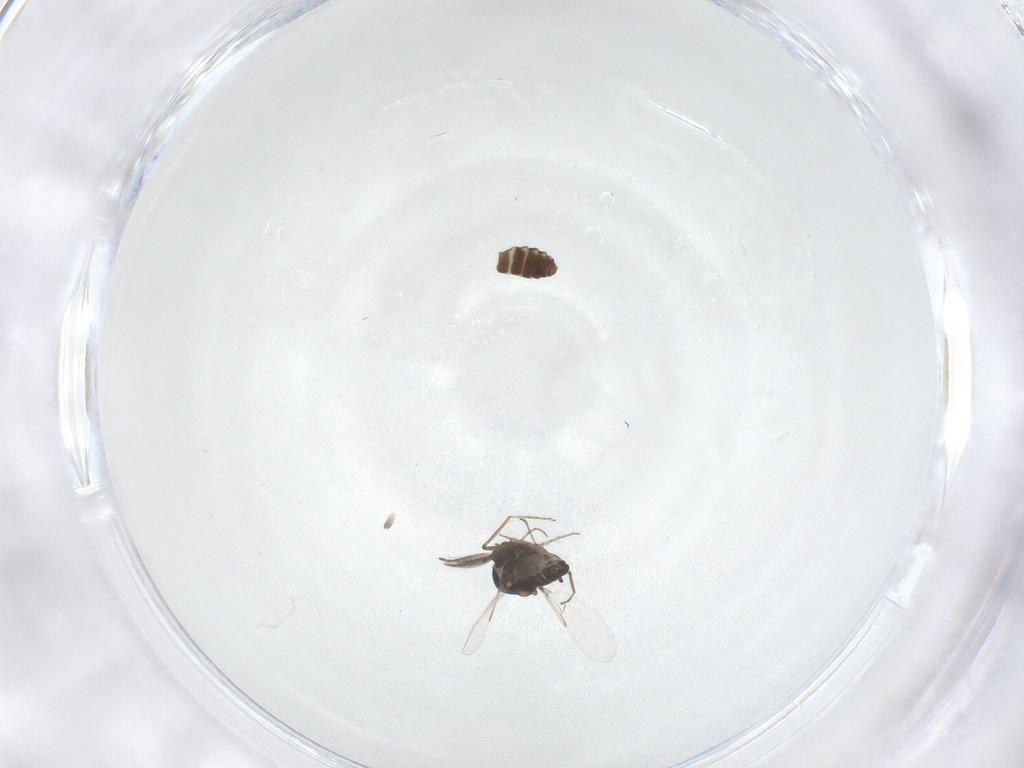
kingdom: Animalia
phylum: Arthropoda
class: Insecta
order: Diptera
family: Ceratopogonidae
